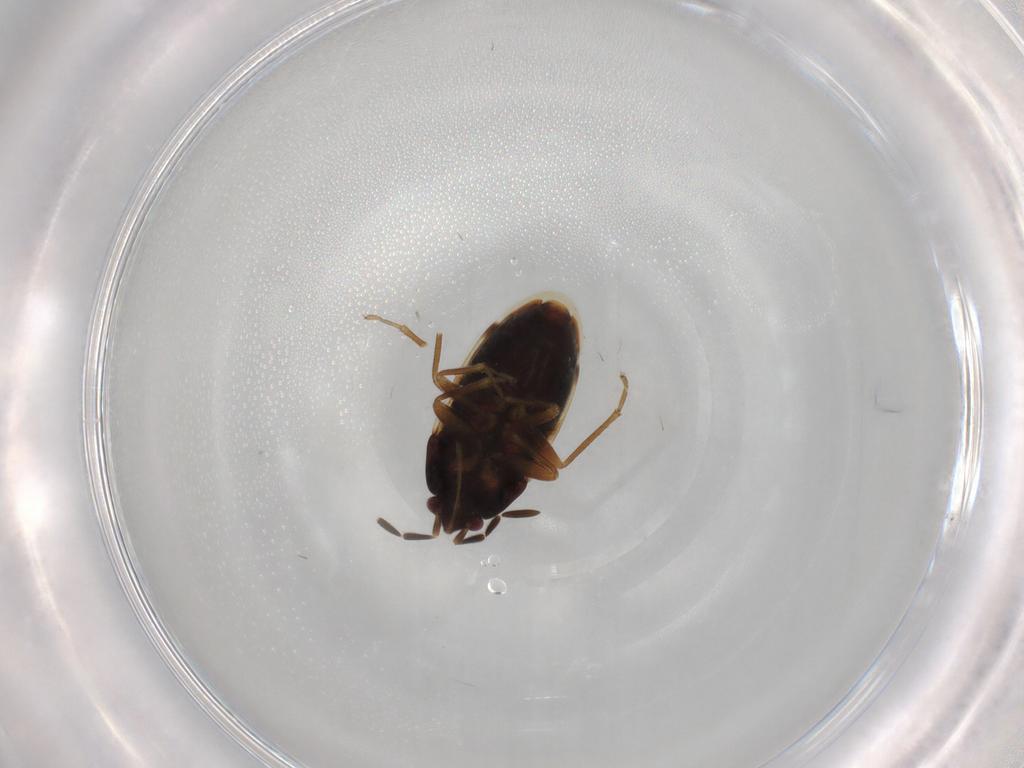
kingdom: Animalia
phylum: Arthropoda
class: Insecta
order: Hemiptera
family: Rhyparochromidae
